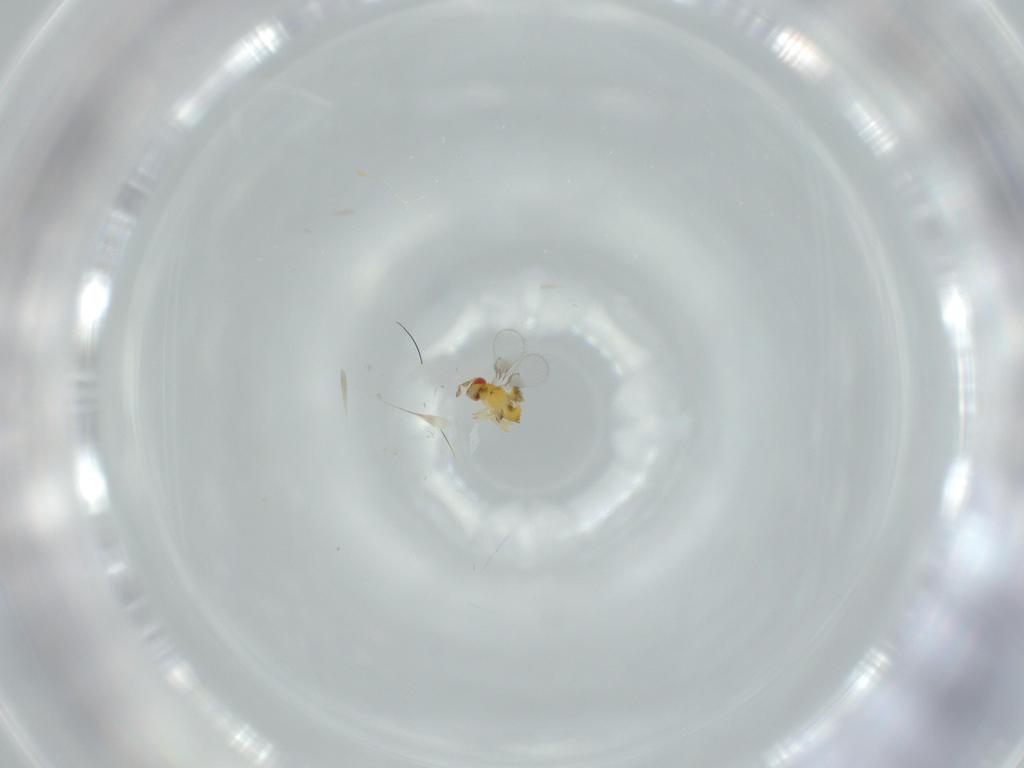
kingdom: Animalia
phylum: Arthropoda
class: Insecta
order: Hymenoptera
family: Trichogrammatidae
